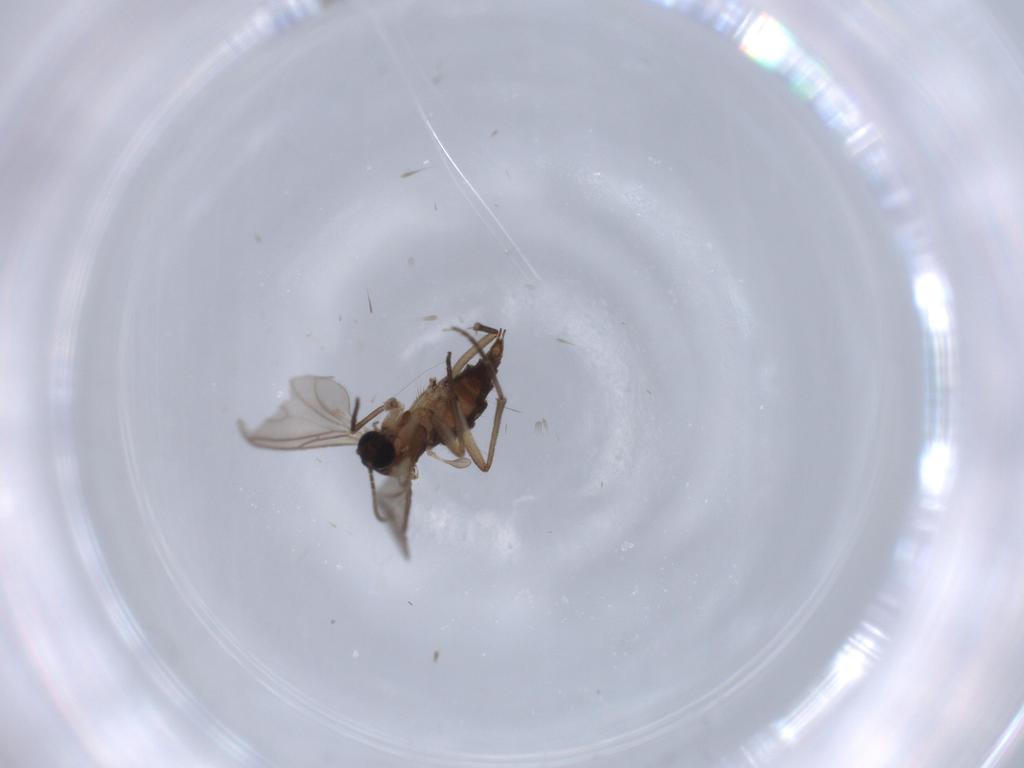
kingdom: Animalia
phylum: Arthropoda
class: Insecta
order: Diptera
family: Sciaridae
